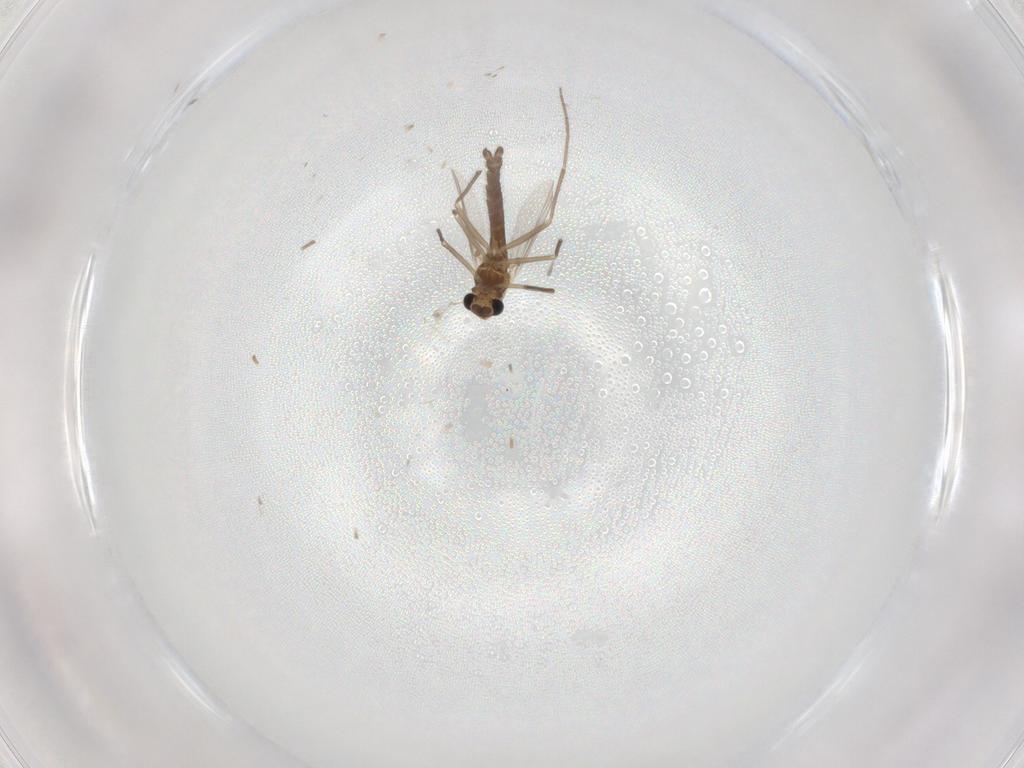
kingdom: Animalia
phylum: Arthropoda
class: Insecta
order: Diptera
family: Chironomidae
